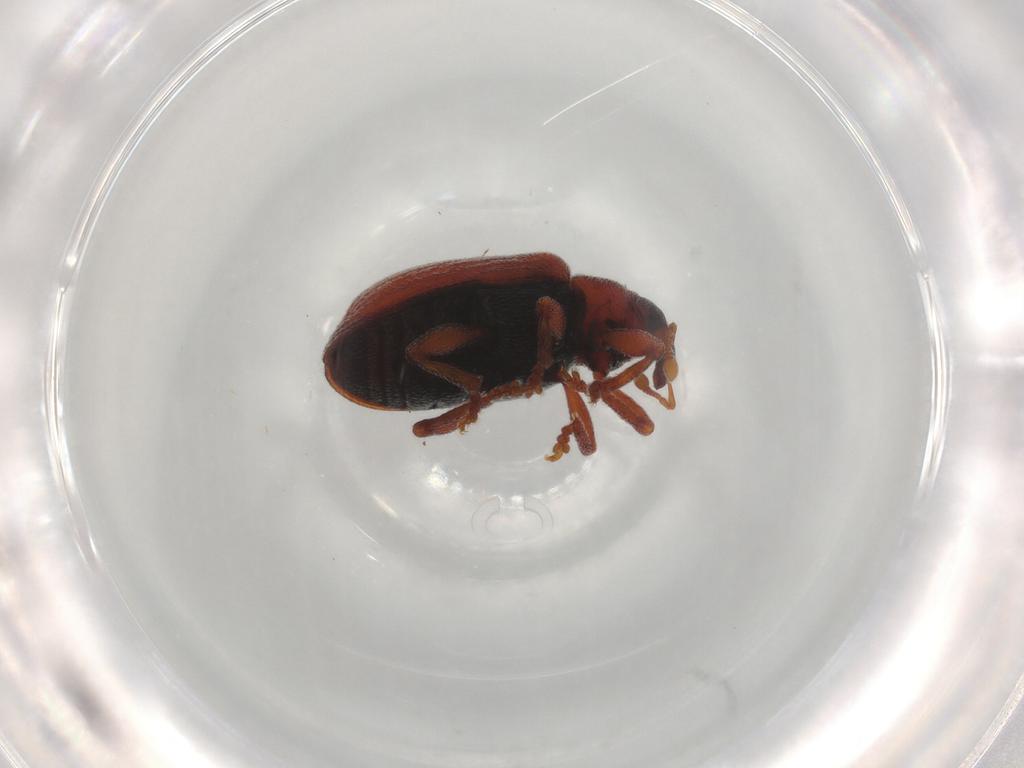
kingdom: Animalia
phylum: Arthropoda
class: Insecta
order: Coleoptera
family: Curculionidae
